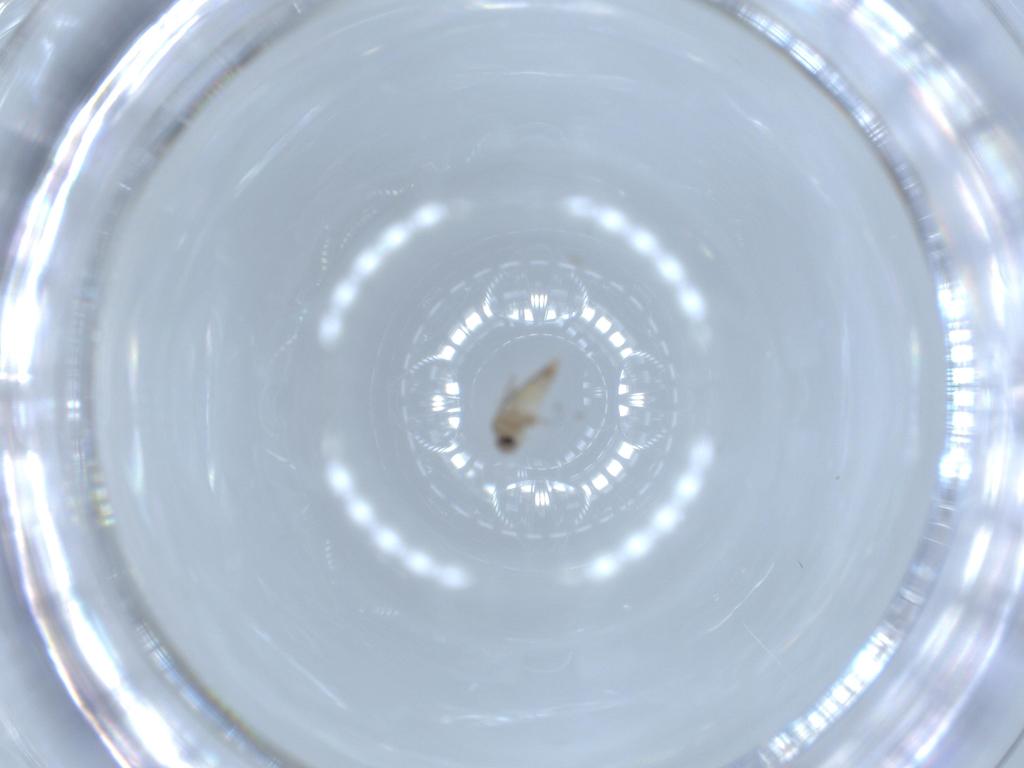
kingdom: Animalia
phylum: Arthropoda
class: Insecta
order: Diptera
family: Cecidomyiidae
